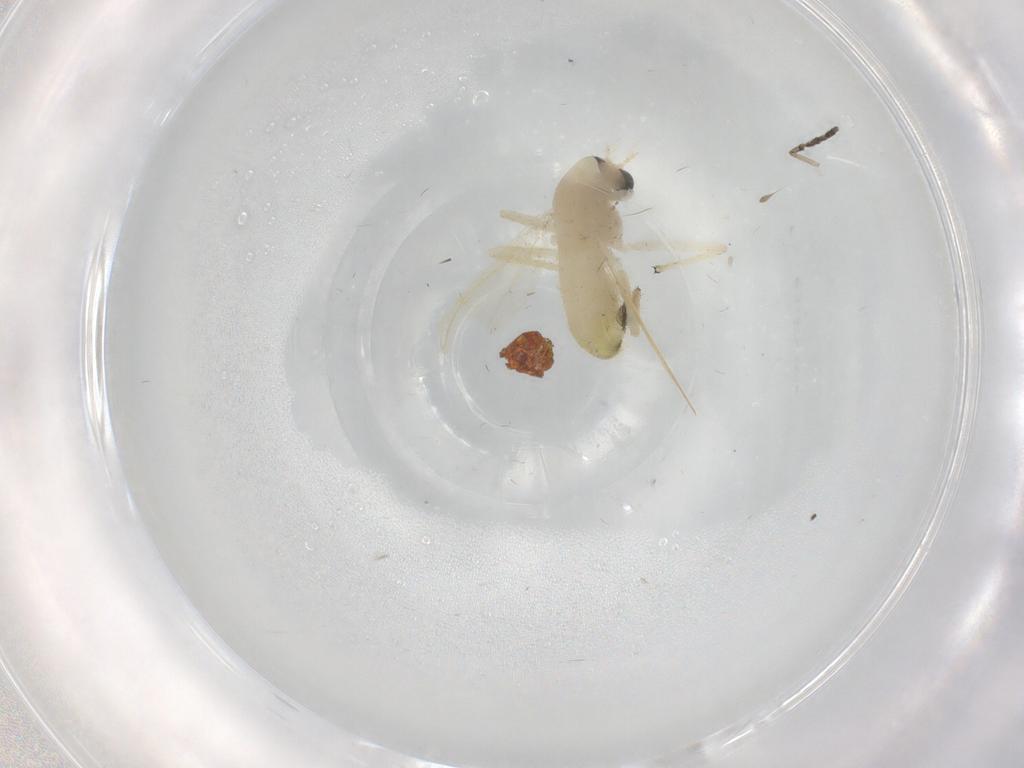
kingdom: Animalia
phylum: Arthropoda
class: Insecta
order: Diptera
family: Chironomidae
